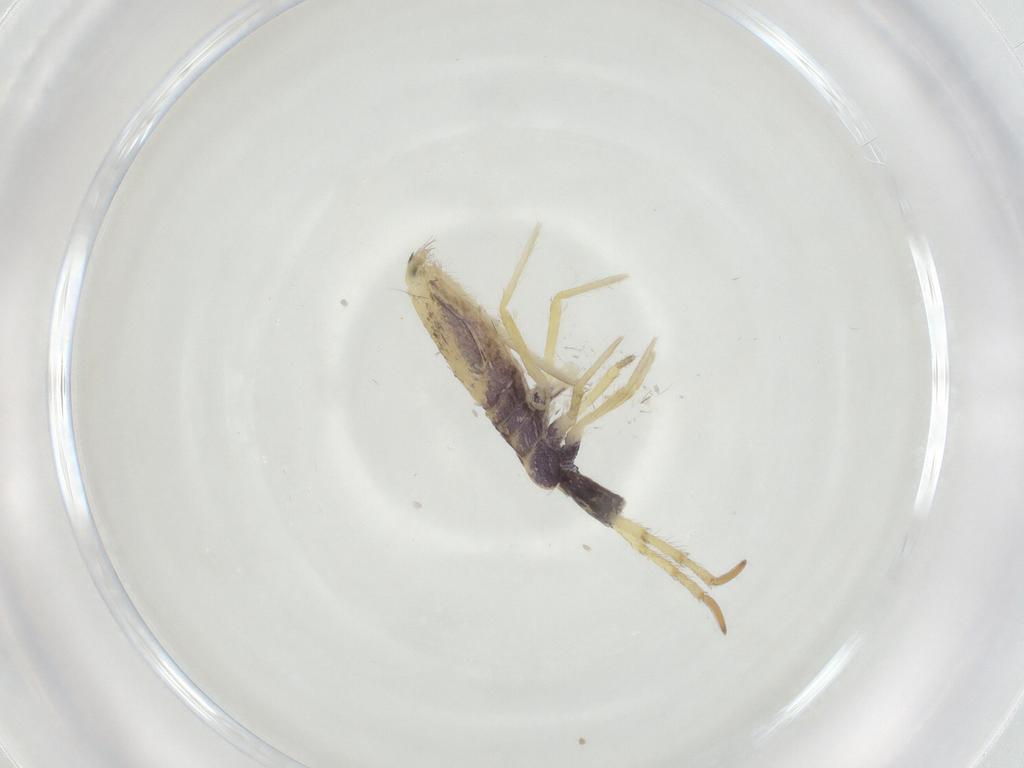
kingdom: Animalia
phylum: Arthropoda
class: Collembola
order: Entomobryomorpha
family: Entomobryidae
